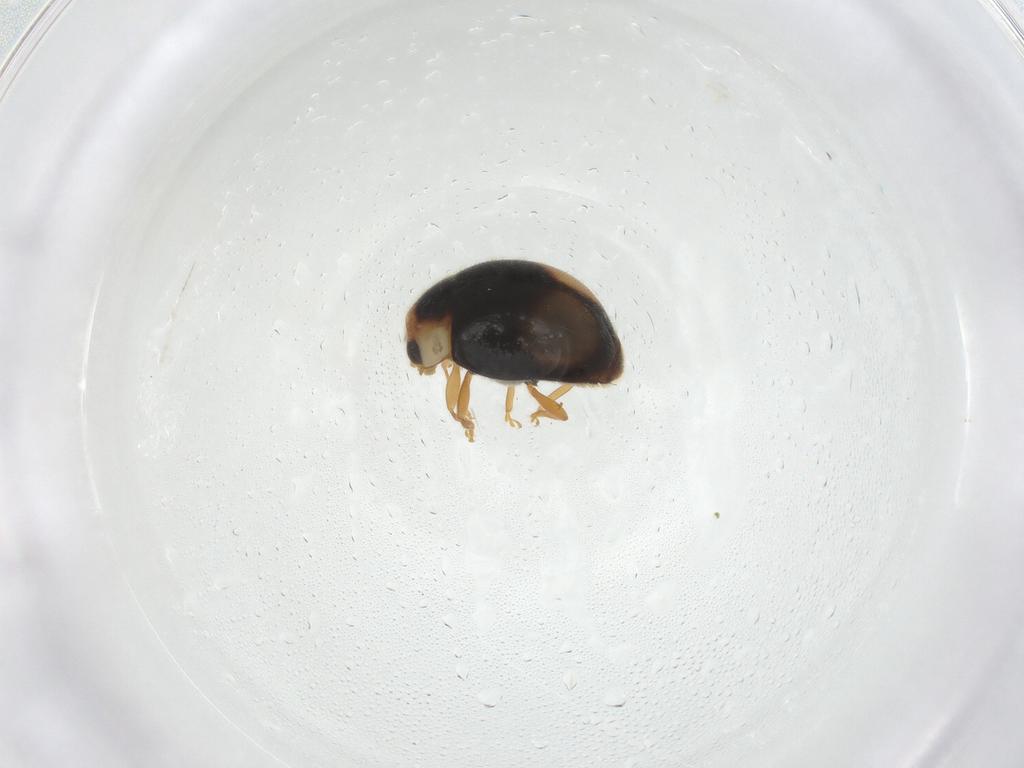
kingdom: Animalia
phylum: Arthropoda
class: Insecta
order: Coleoptera
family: Coccinellidae
